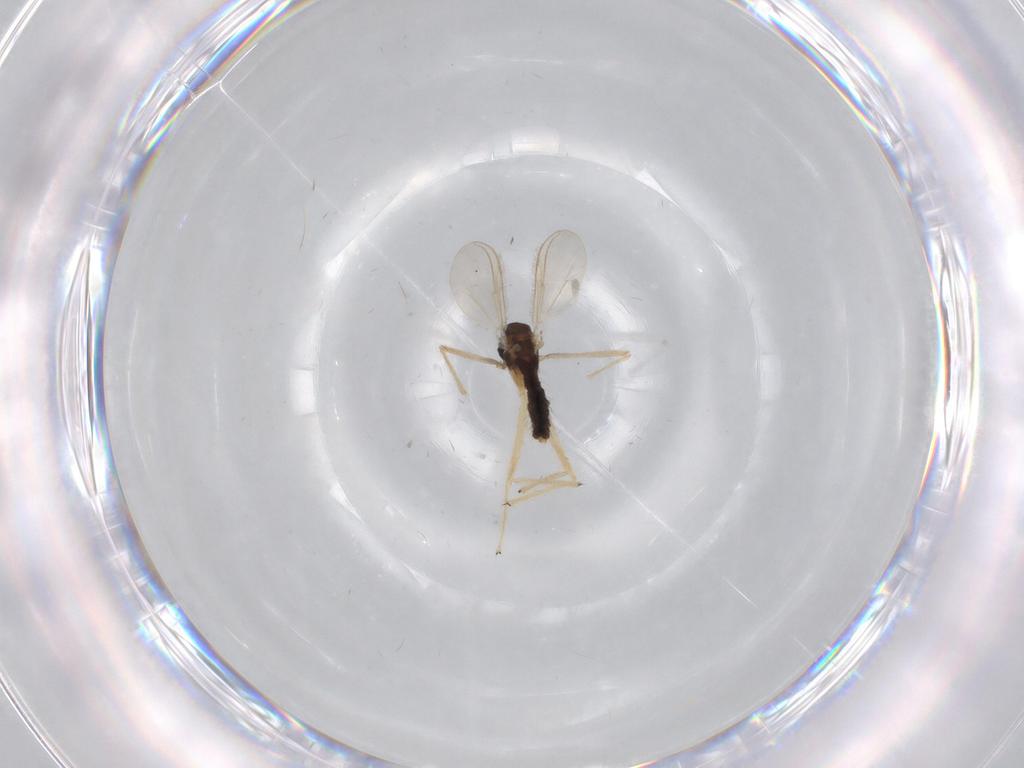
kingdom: Animalia
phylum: Arthropoda
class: Insecta
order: Diptera
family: Chironomidae
